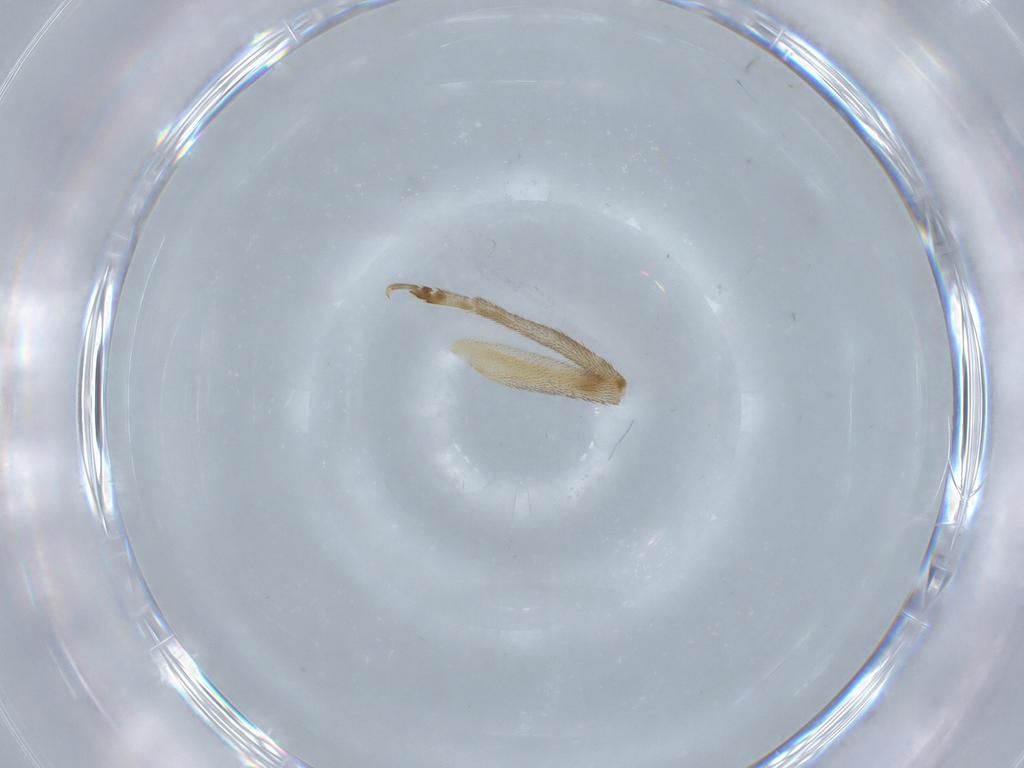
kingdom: Animalia
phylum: Arthropoda
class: Insecta
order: Orthoptera
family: Trigonidiidae
